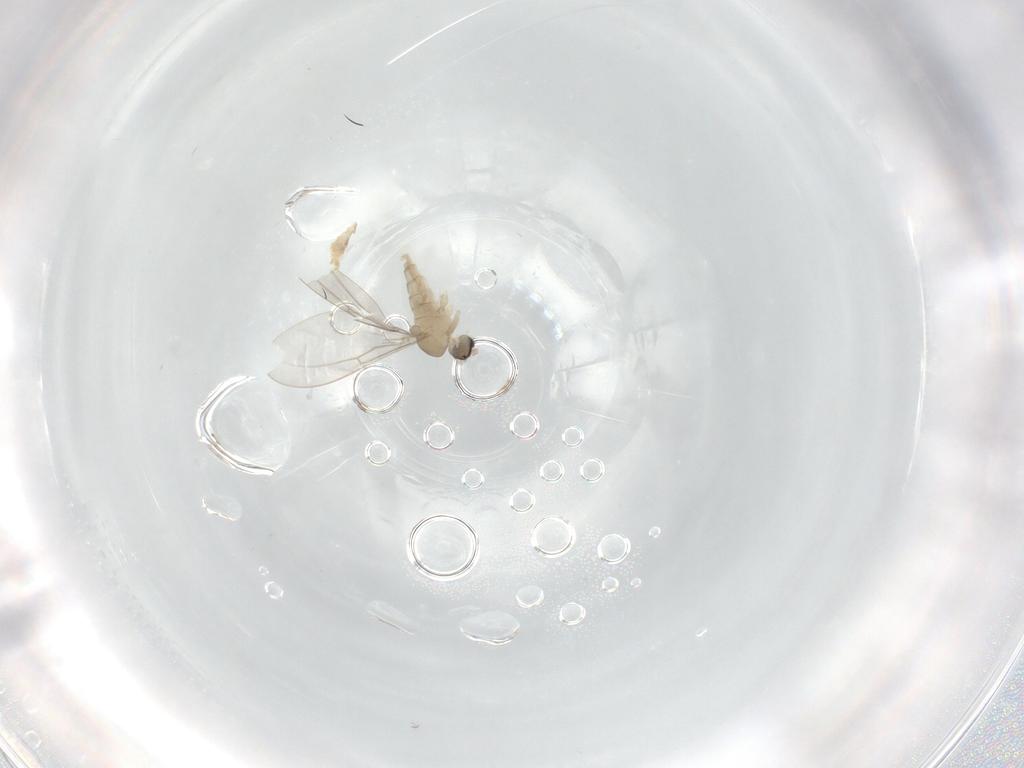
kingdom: Animalia
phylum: Arthropoda
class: Insecta
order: Diptera
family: Cecidomyiidae
